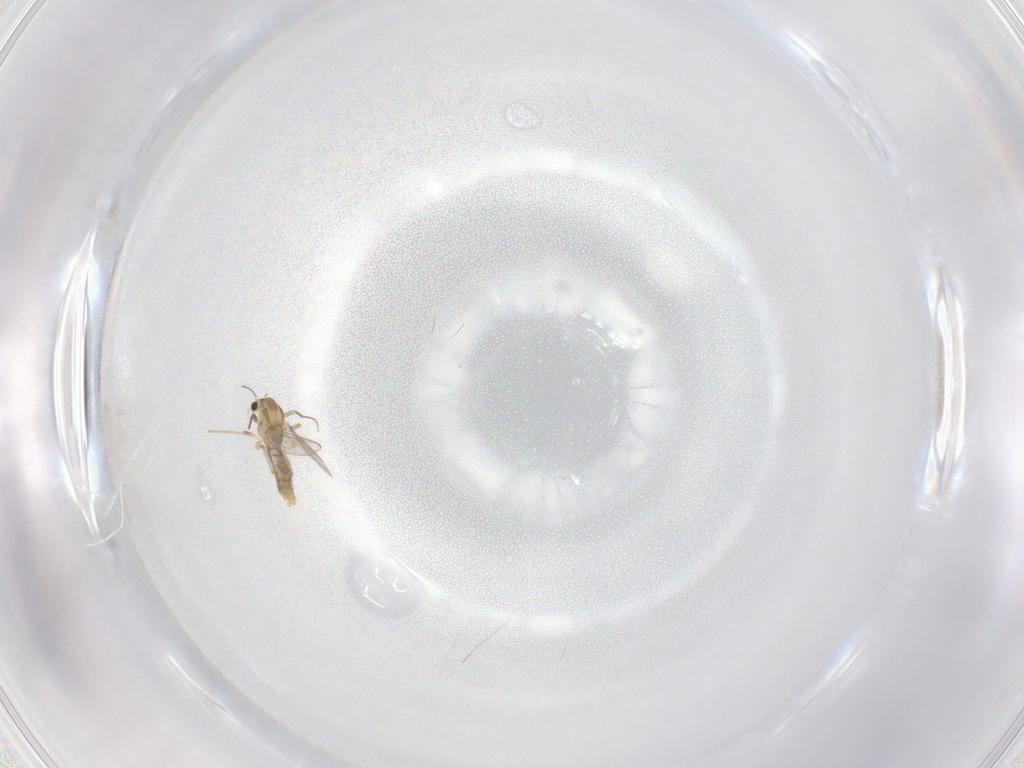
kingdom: Animalia
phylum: Arthropoda
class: Insecta
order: Diptera
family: Chironomidae
